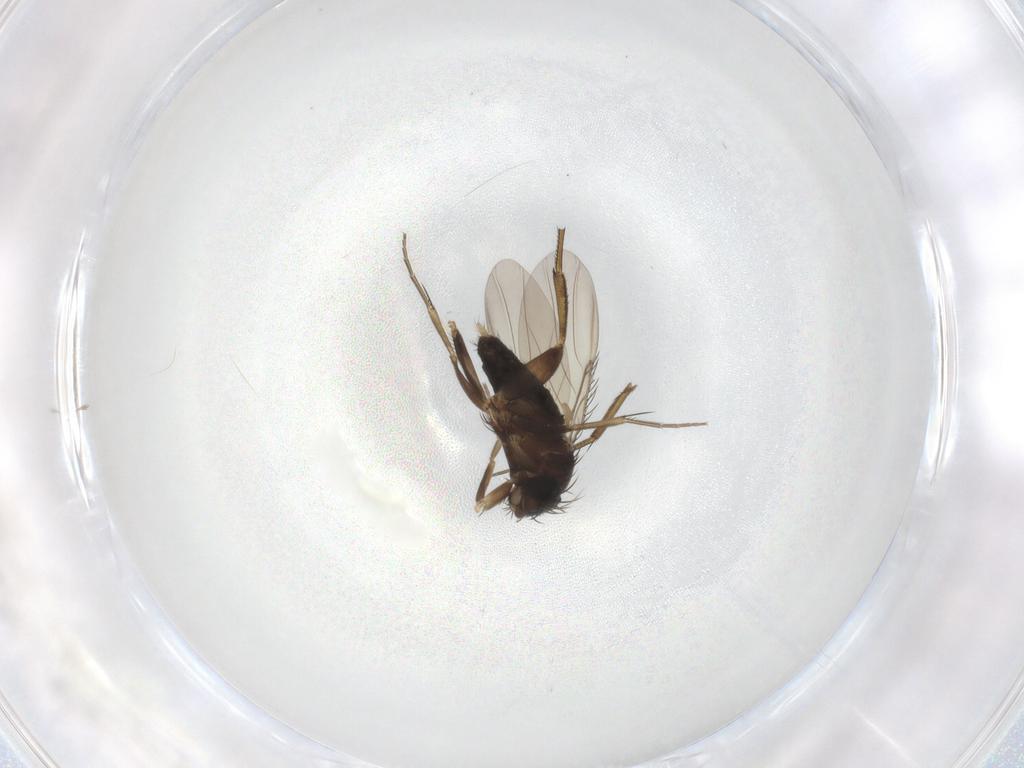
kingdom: Animalia
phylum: Arthropoda
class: Insecta
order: Diptera
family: Phoridae
